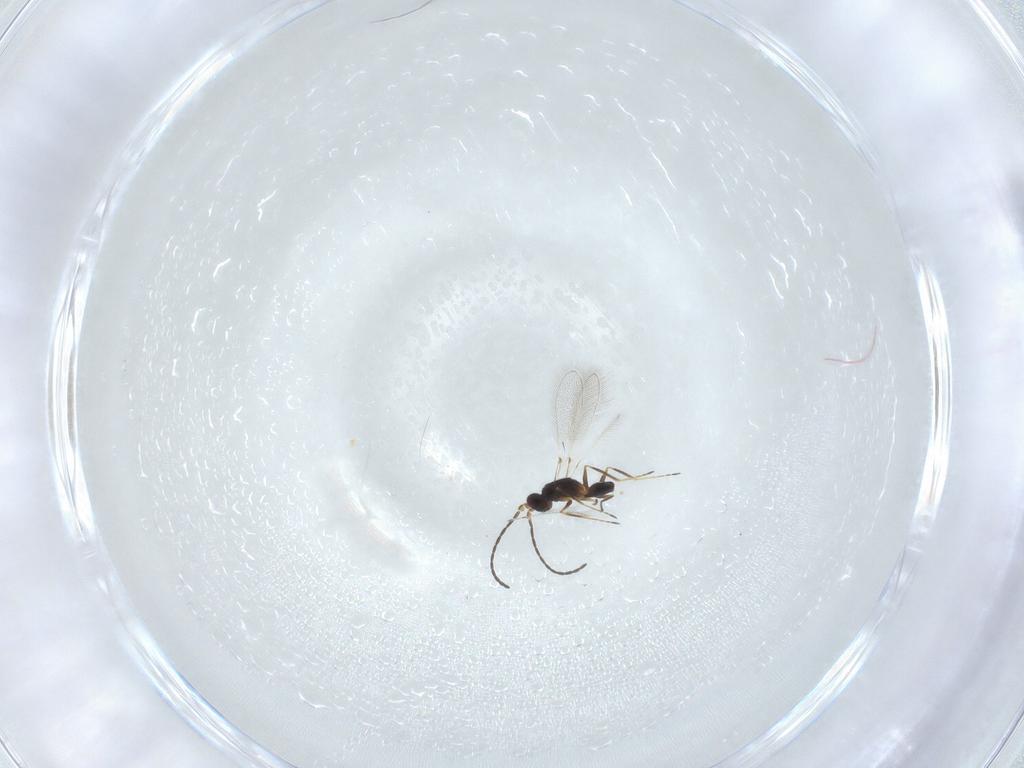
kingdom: Animalia
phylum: Arthropoda
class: Insecta
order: Hymenoptera
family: Mymaridae
